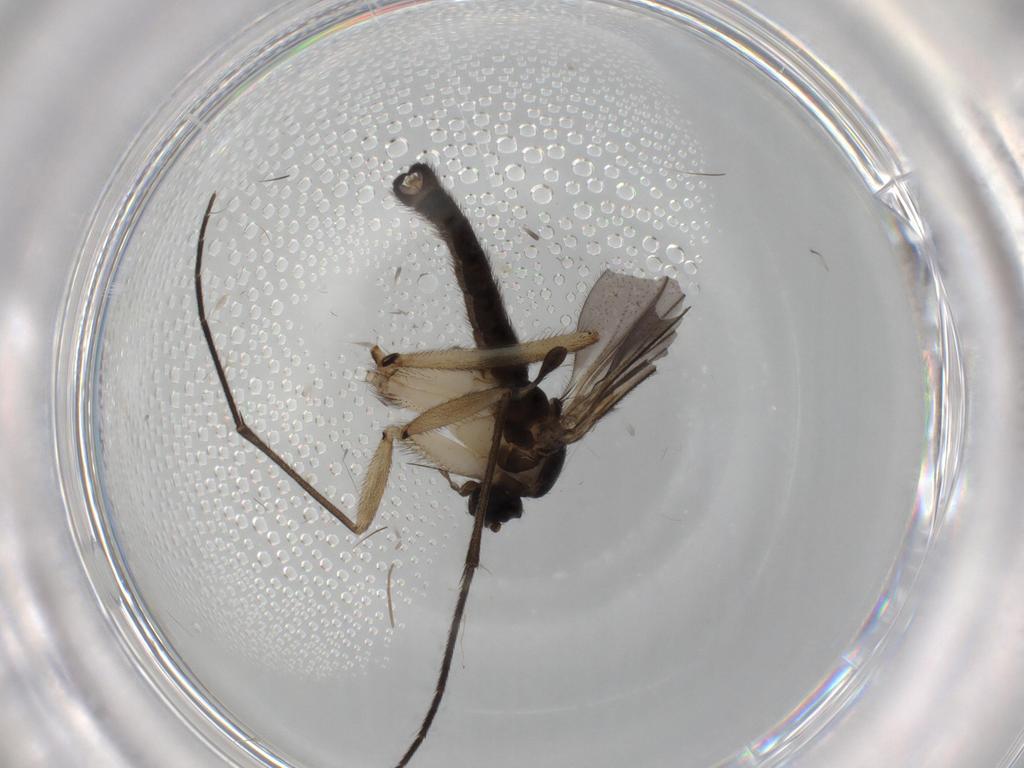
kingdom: Animalia
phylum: Arthropoda
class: Insecta
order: Diptera
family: Sciaridae
